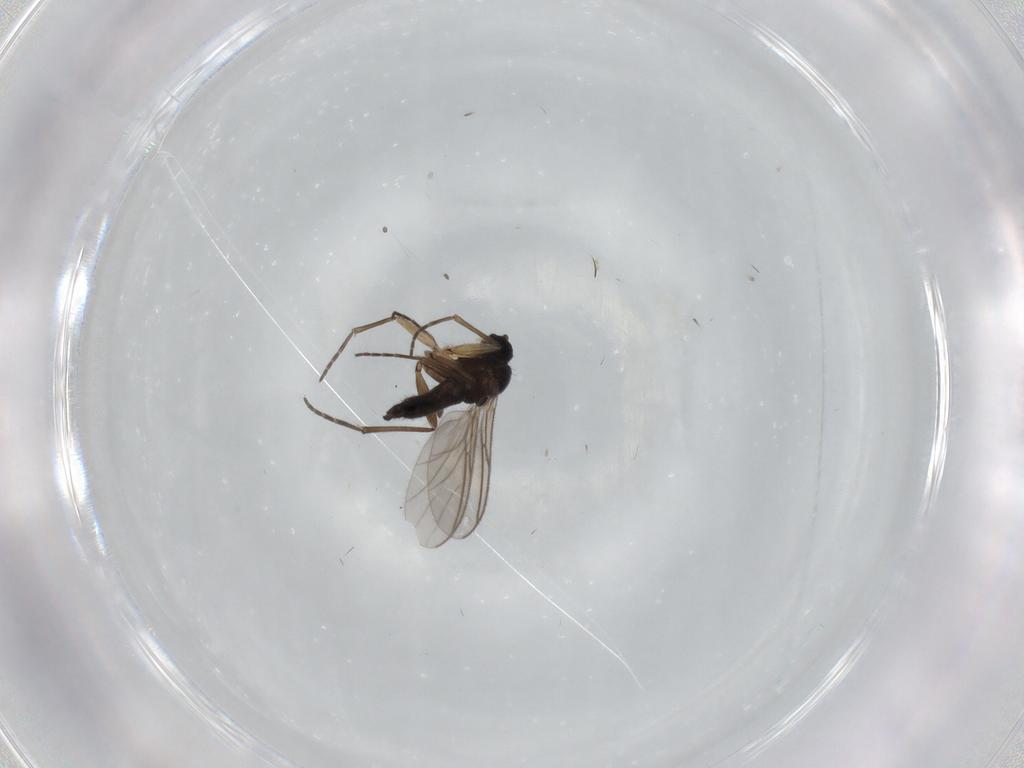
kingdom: Animalia
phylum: Arthropoda
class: Insecta
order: Diptera
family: Sciaridae
